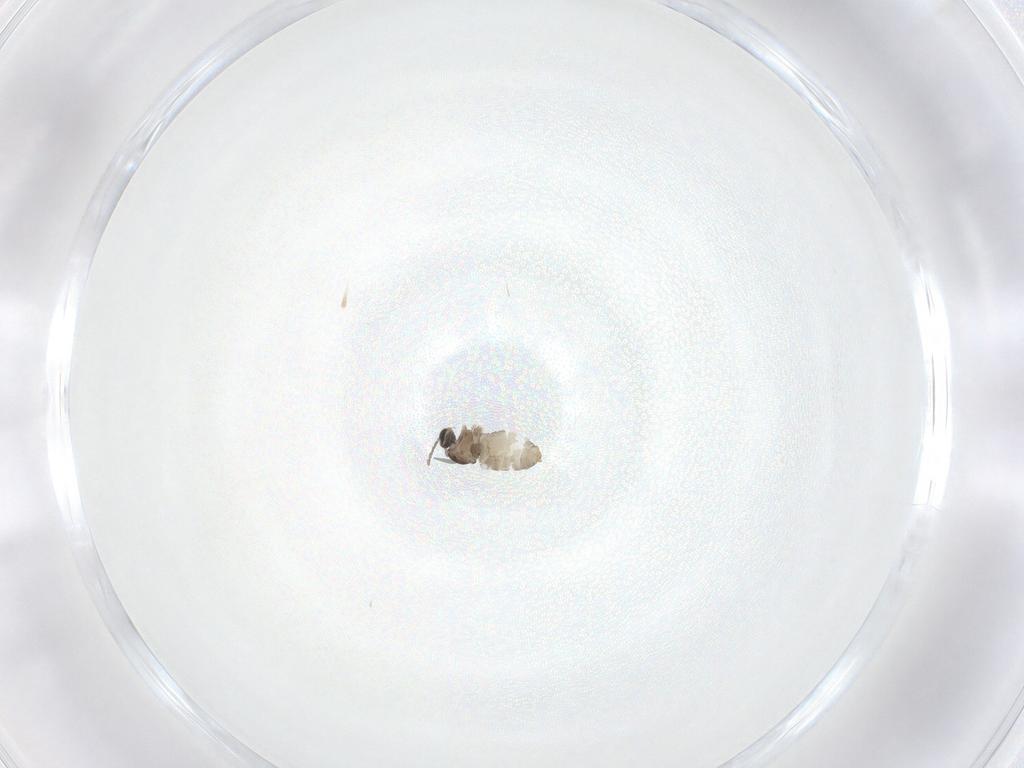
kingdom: Animalia
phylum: Arthropoda
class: Insecta
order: Diptera
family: Cecidomyiidae
